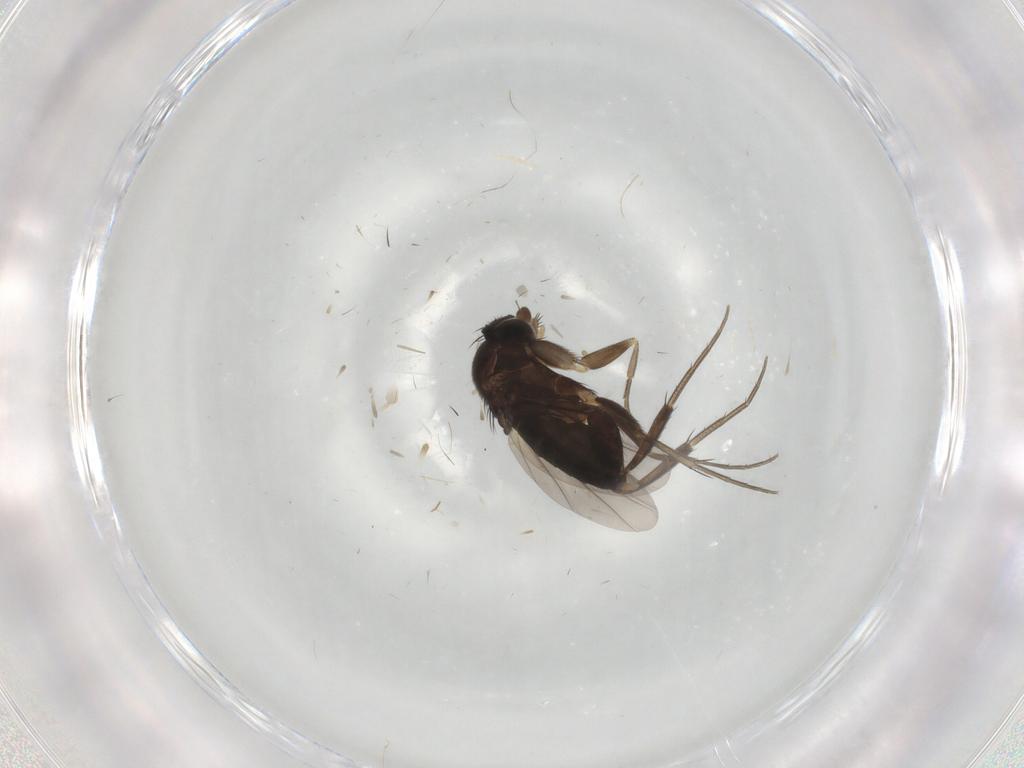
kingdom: Animalia
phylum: Arthropoda
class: Insecta
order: Diptera
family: Phoridae
